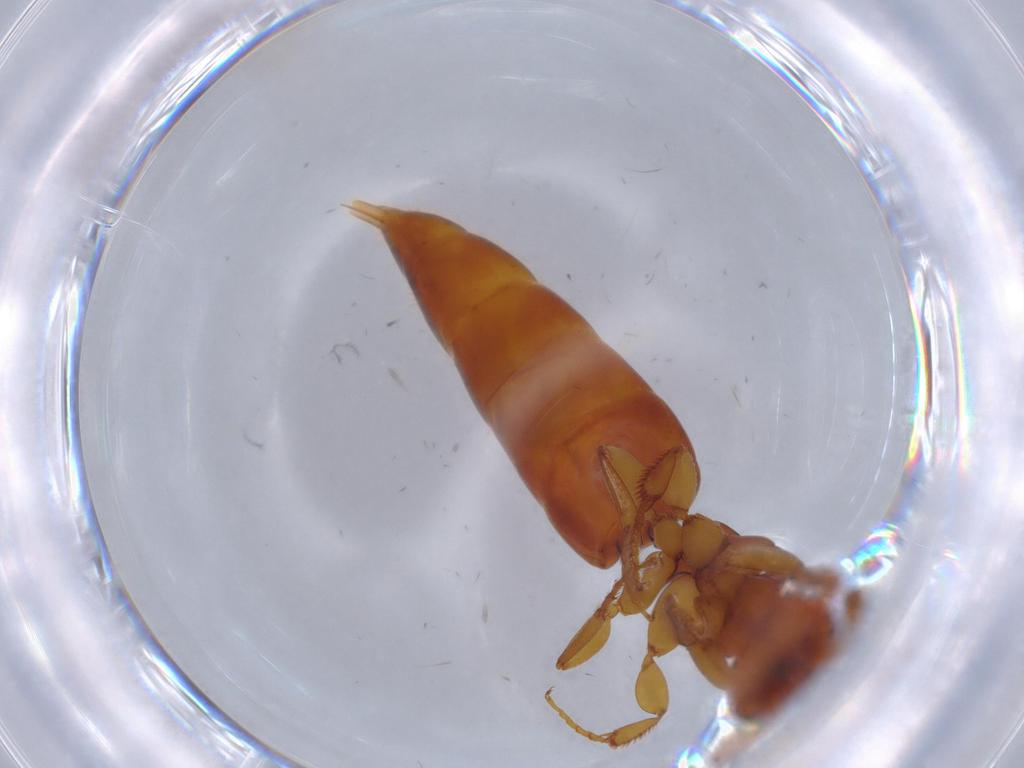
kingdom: Animalia
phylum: Arthropoda
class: Insecta
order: Hymenoptera
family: Bethylidae
